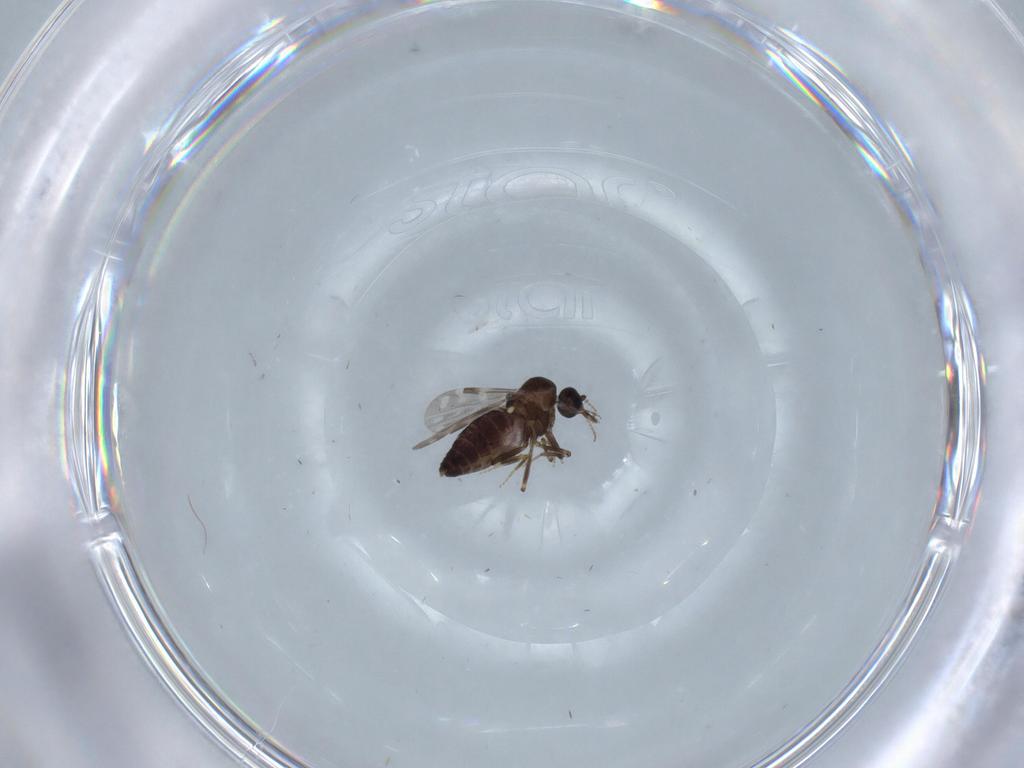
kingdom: Animalia
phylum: Arthropoda
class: Insecta
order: Diptera
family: Ceratopogonidae
